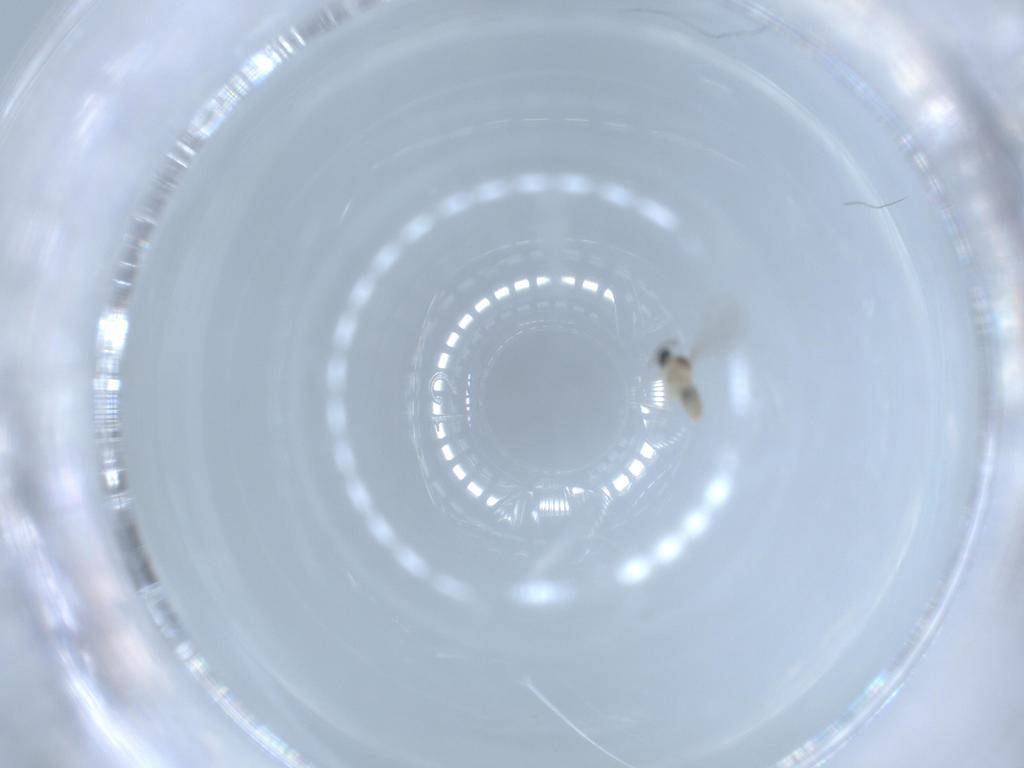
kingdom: Animalia
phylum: Arthropoda
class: Insecta
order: Diptera
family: Cecidomyiidae
